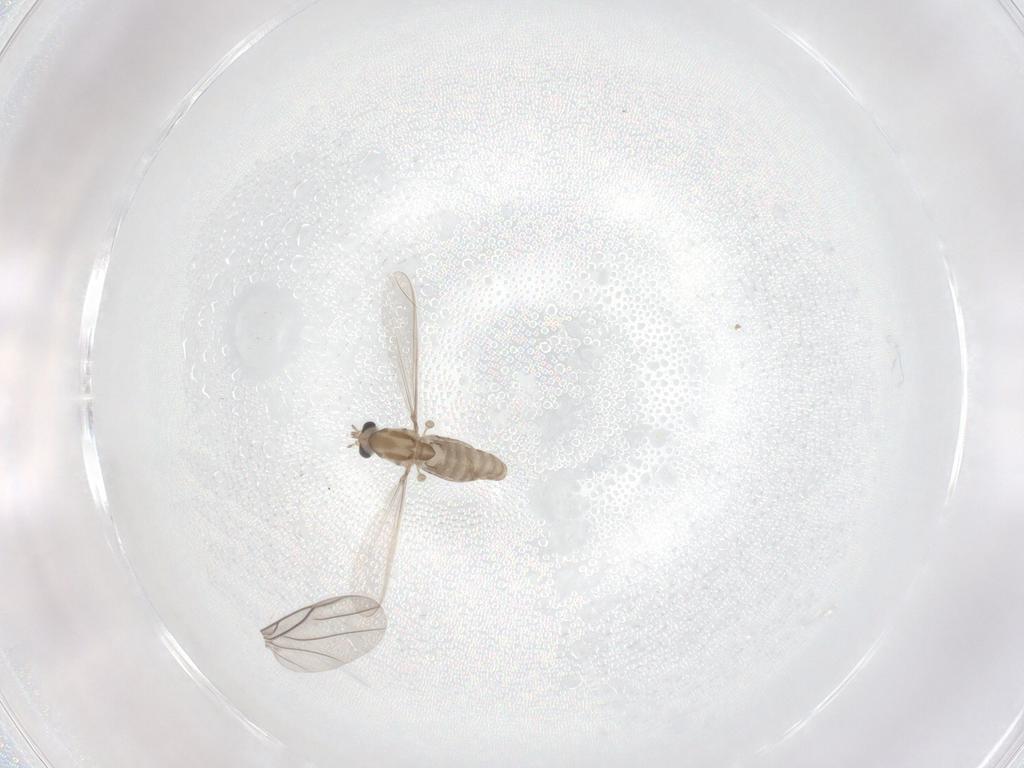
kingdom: Animalia
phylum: Arthropoda
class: Insecta
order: Diptera
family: Chironomidae
